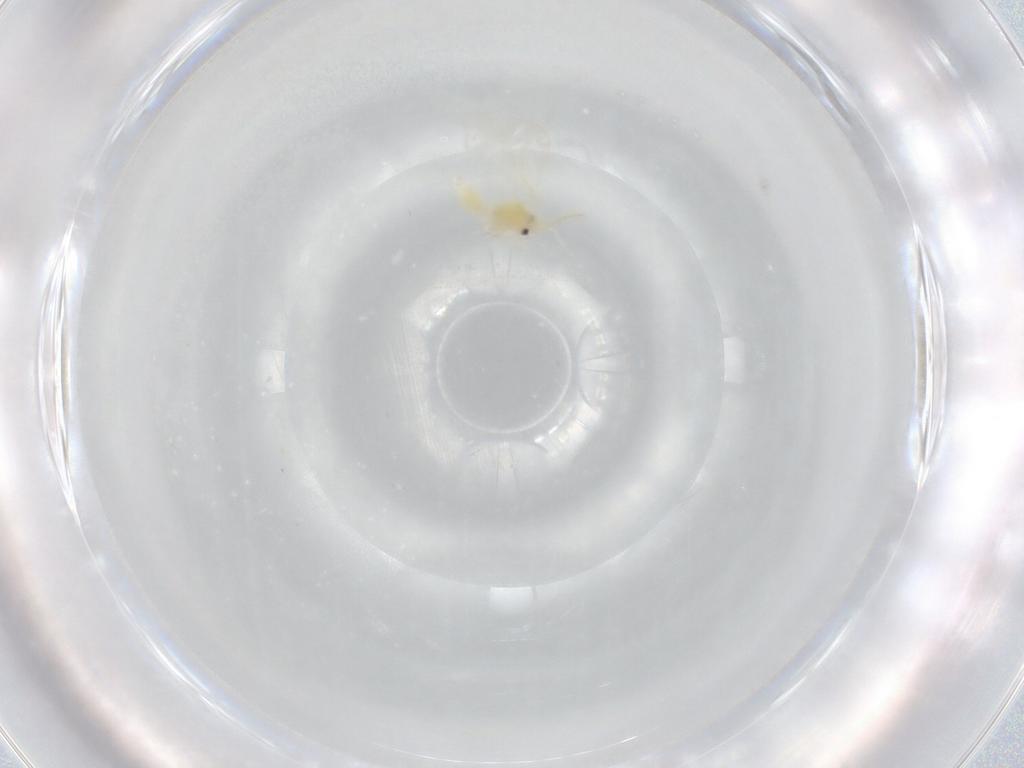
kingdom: Animalia
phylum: Arthropoda
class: Insecta
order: Hemiptera
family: Aleyrodidae
